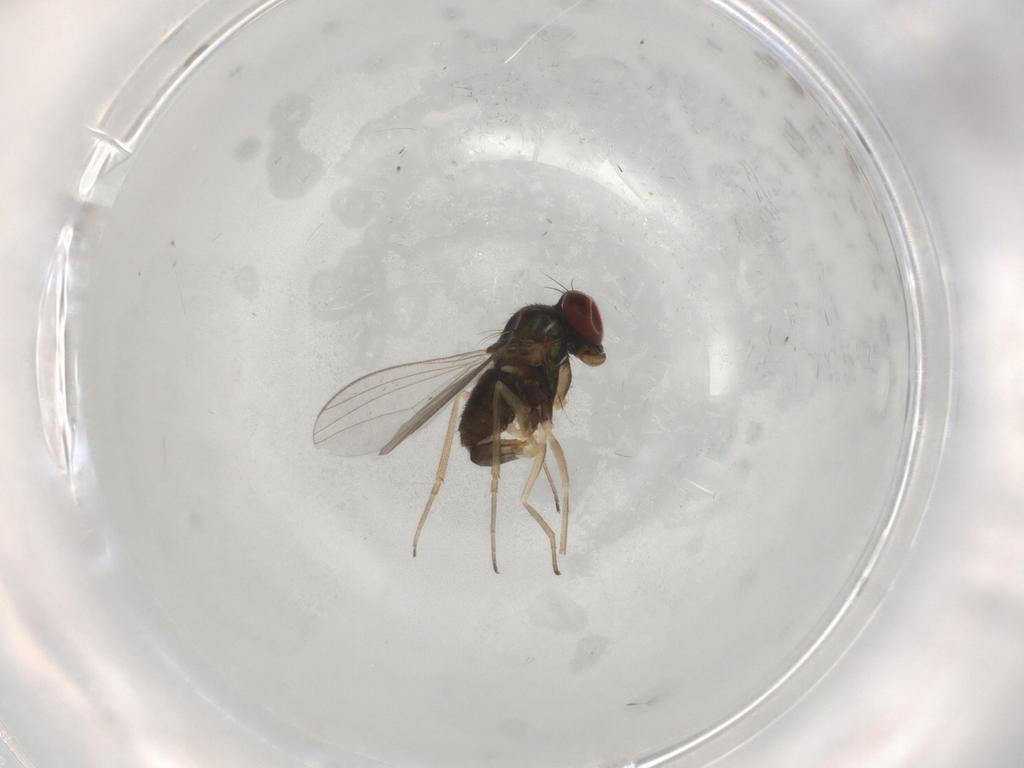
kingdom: Animalia
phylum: Arthropoda
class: Insecta
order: Diptera
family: Dolichopodidae
